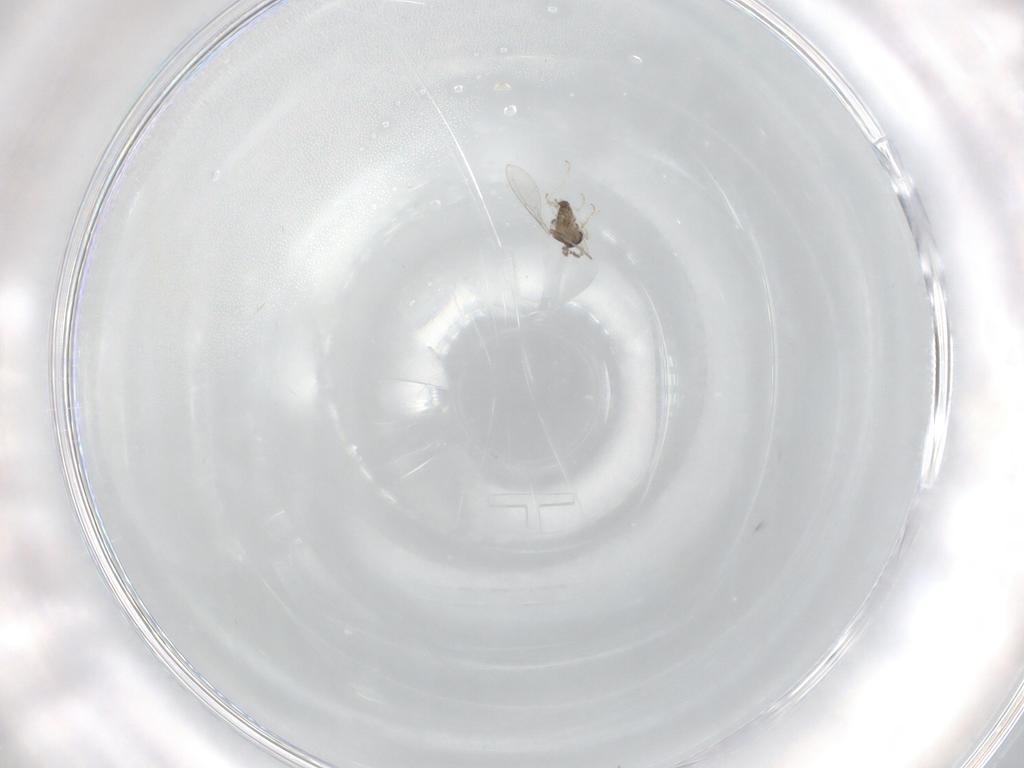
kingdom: Animalia
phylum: Arthropoda
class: Insecta
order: Diptera
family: Cecidomyiidae
